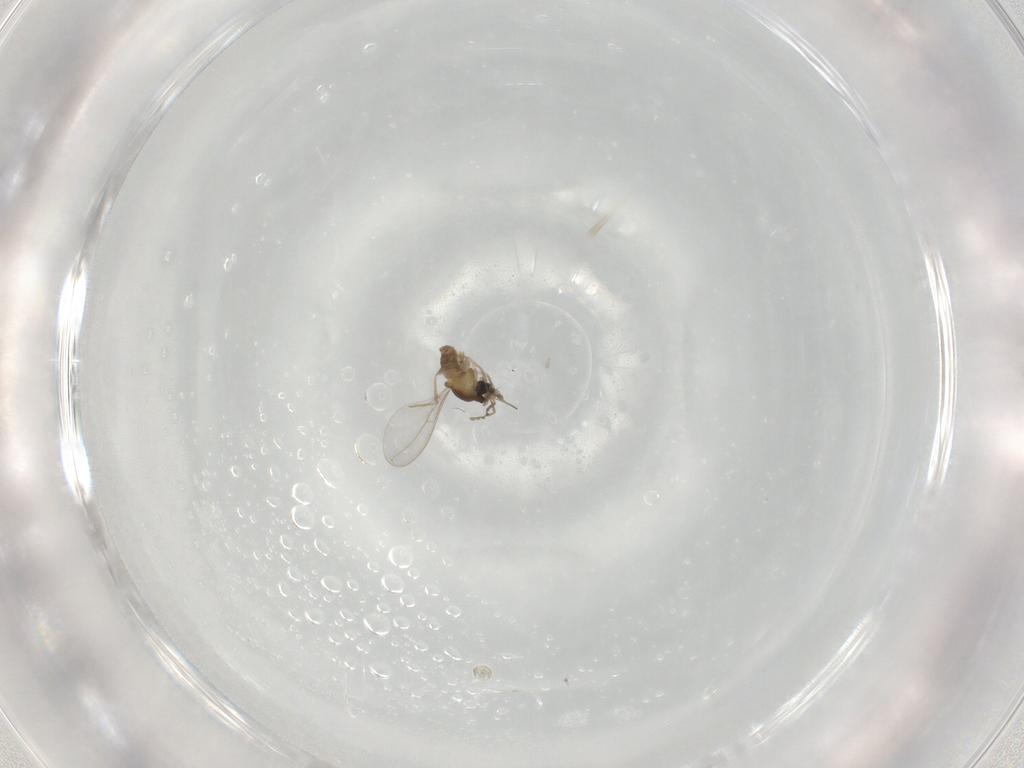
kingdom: Animalia
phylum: Arthropoda
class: Insecta
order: Diptera
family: Cecidomyiidae
